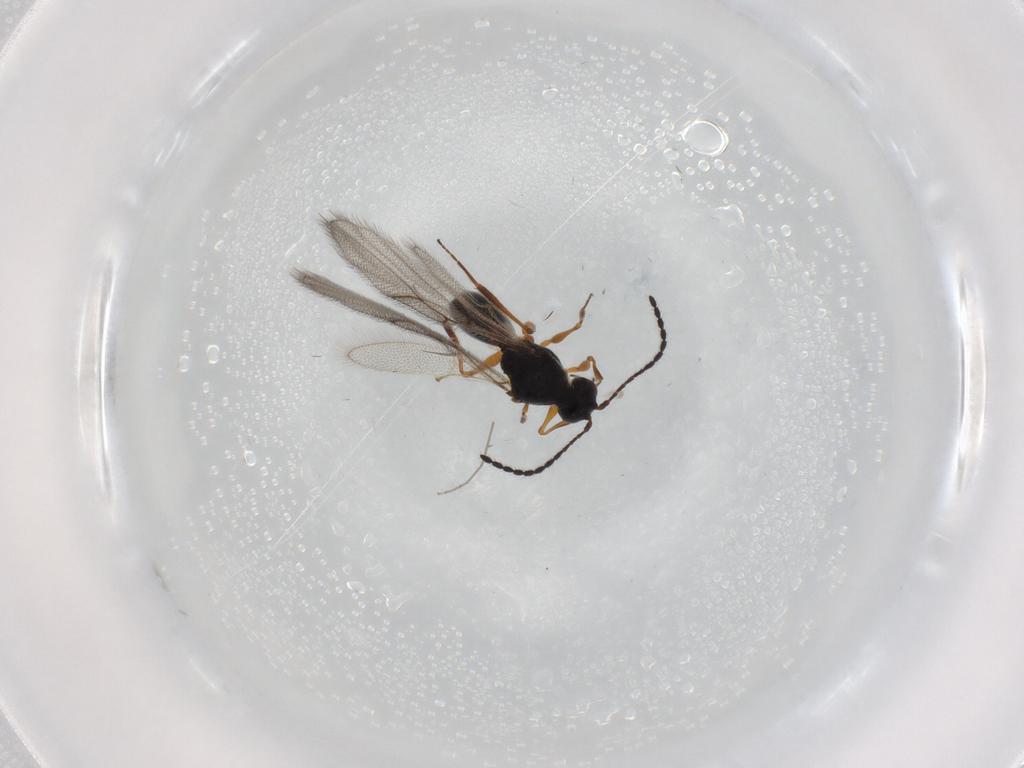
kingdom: Animalia
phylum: Arthropoda
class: Insecta
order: Hymenoptera
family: Figitidae
